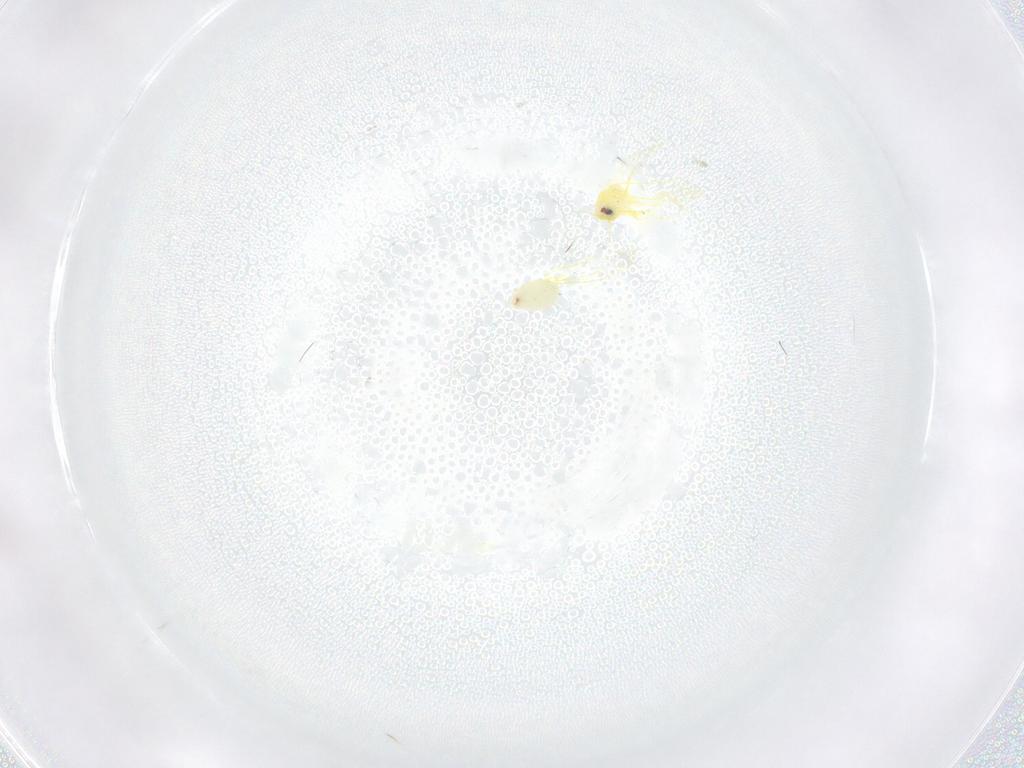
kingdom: Animalia
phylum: Arthropoda
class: Insecta
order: Hemiptera
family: Aleyrodidae
